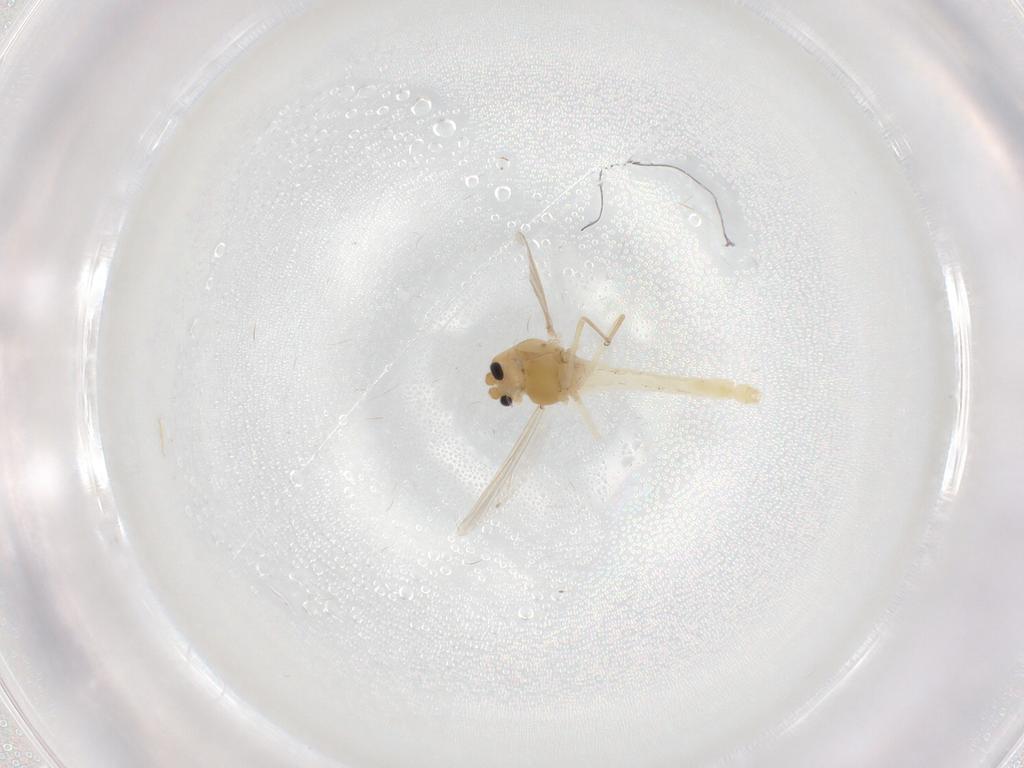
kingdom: Animalia
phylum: Arthropoda
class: Insecta
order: Diptera
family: Chironomidae
